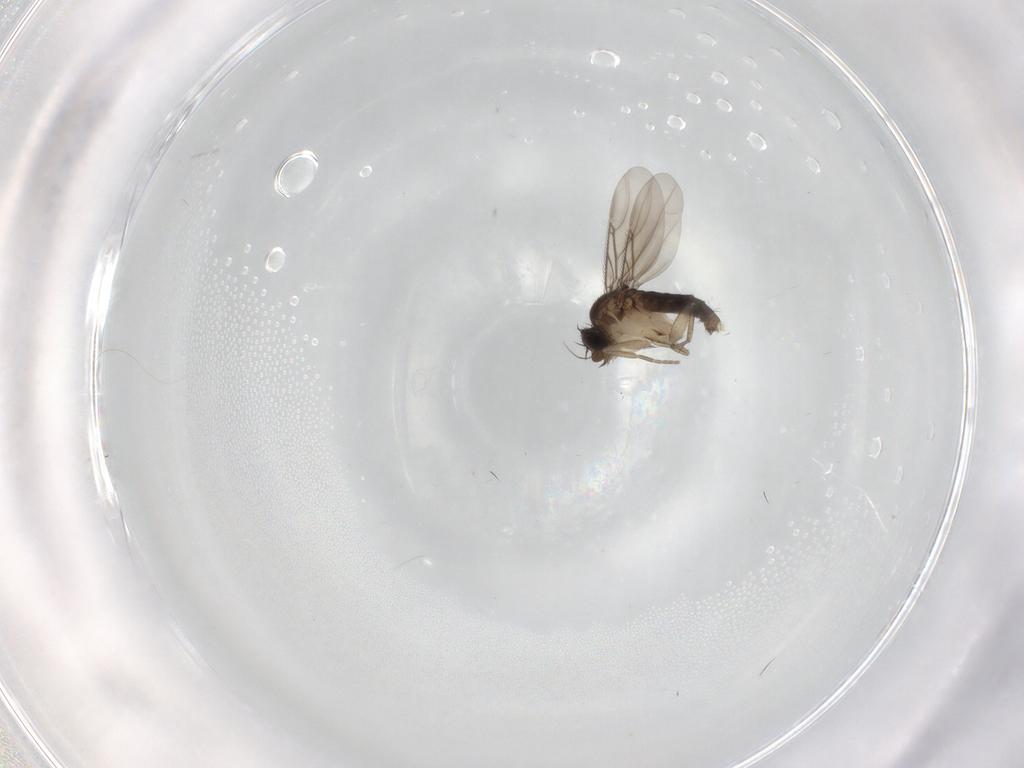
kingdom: Animalia
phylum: Arthropoda
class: Insecta
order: Diptera
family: Phoridae
